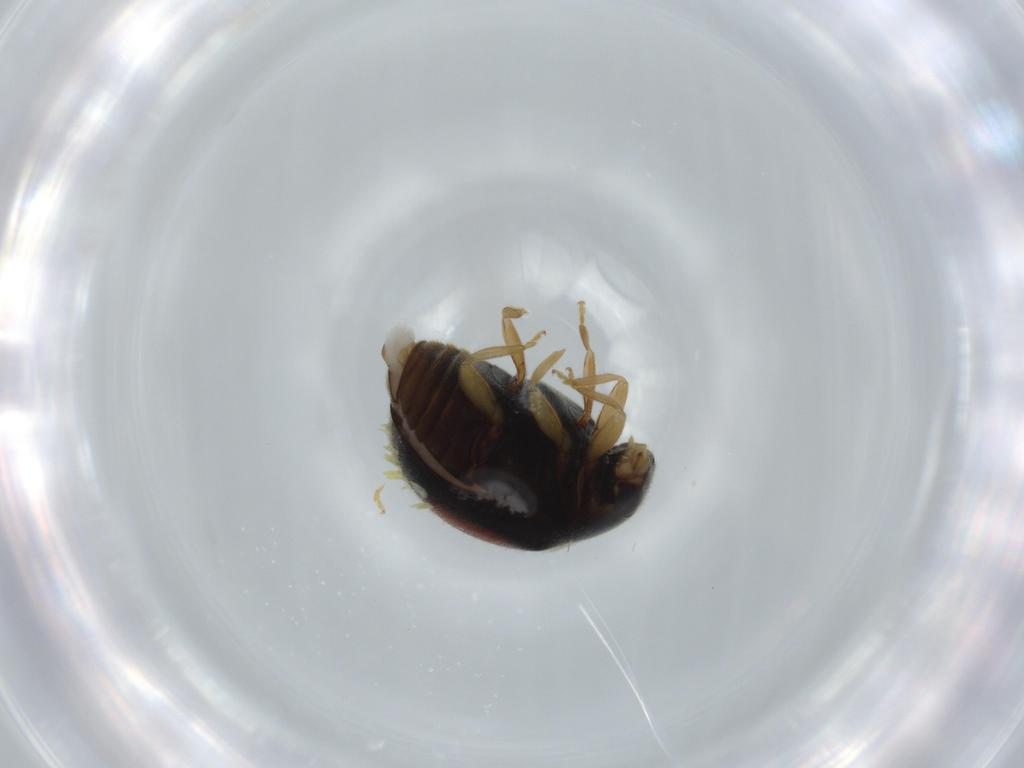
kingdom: Animalia
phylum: Arthropoda
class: Insecta
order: Coleoptera
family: Coccinellidae
